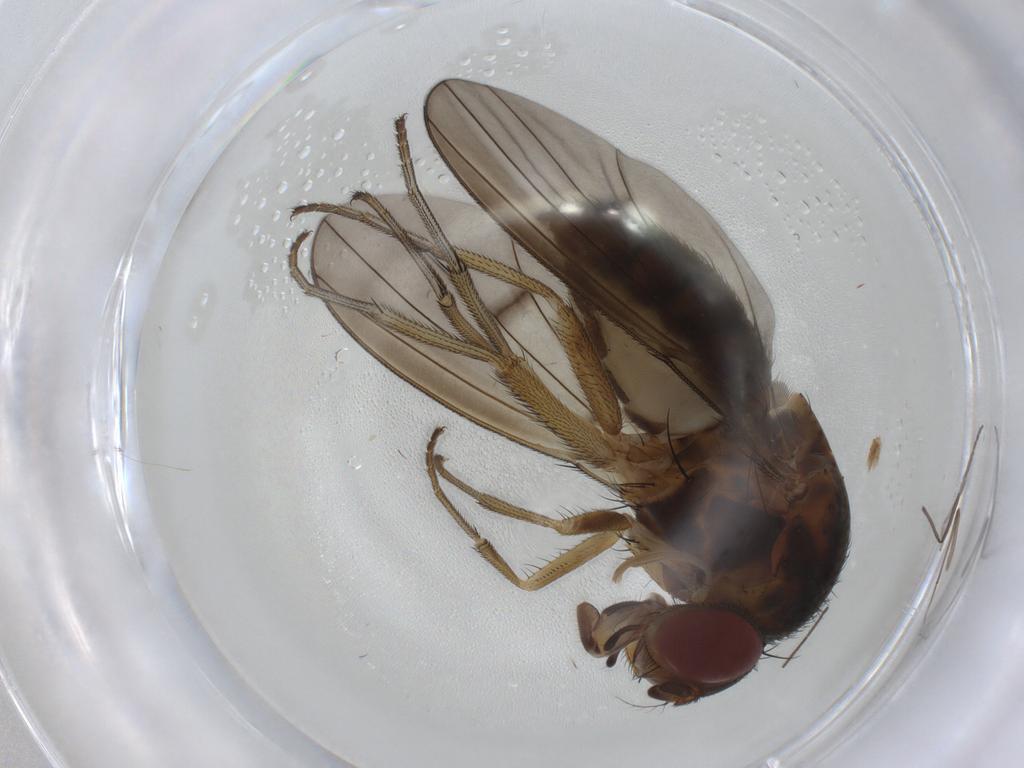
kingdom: Animalia
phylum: Arthropoda
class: Insecta
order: Diptera
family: Curtonotidae
